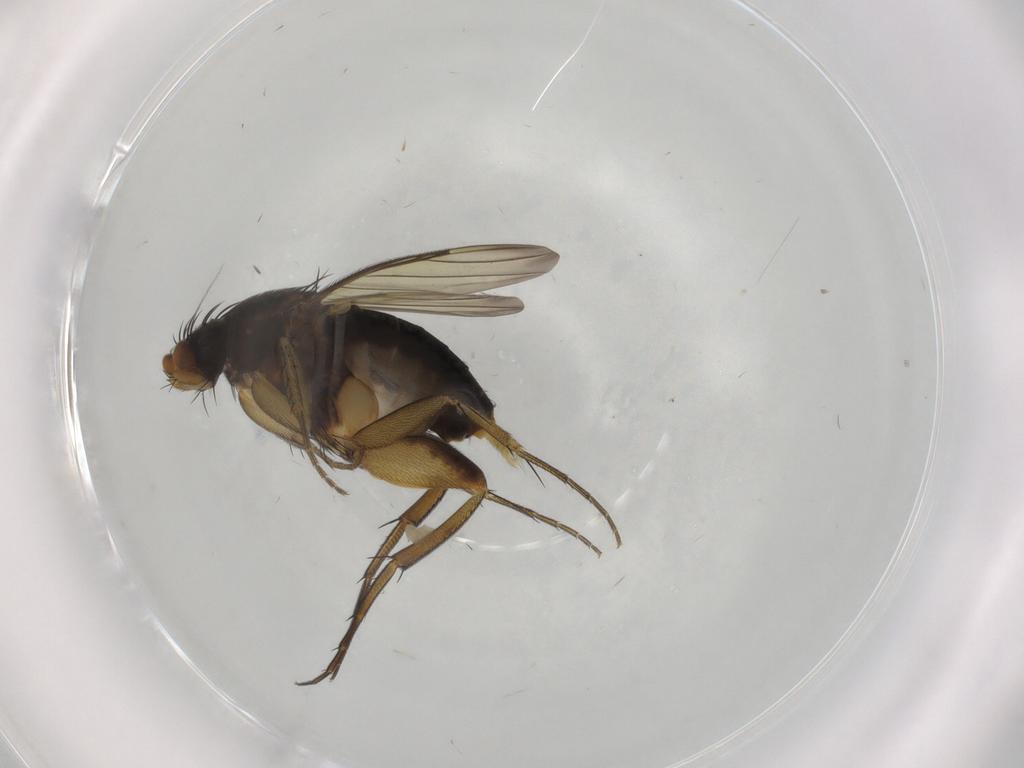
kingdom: Animalia
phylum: Arthropoda
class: Insecta
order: Diptera
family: Ceratopogonidae
